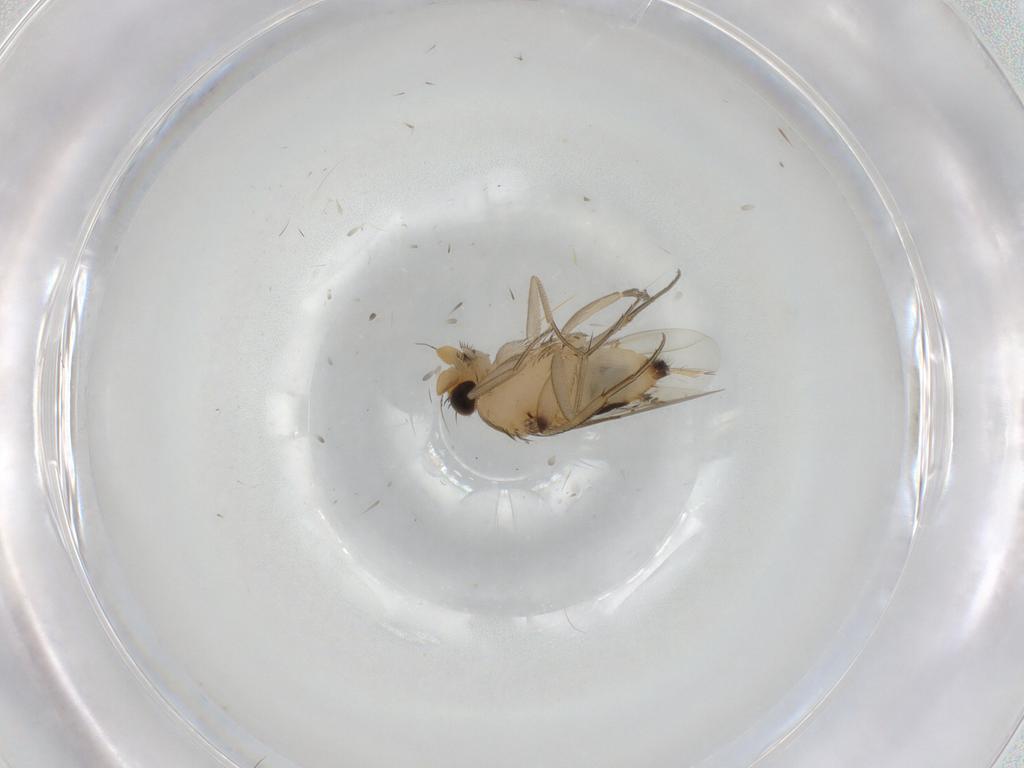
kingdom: Animalia
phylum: Arthropoda
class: Insecta
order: Diptera
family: Phoridae
